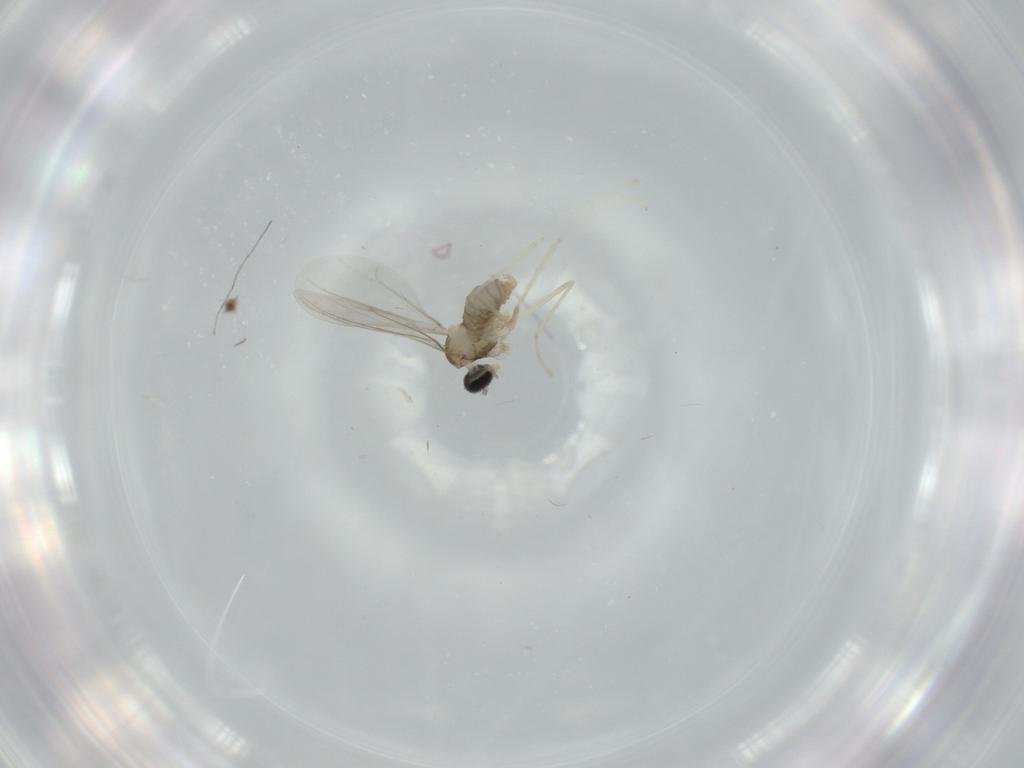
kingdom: Animalia
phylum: Arthropoda
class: Insecta
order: Diptera
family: Cecidomyiidae
